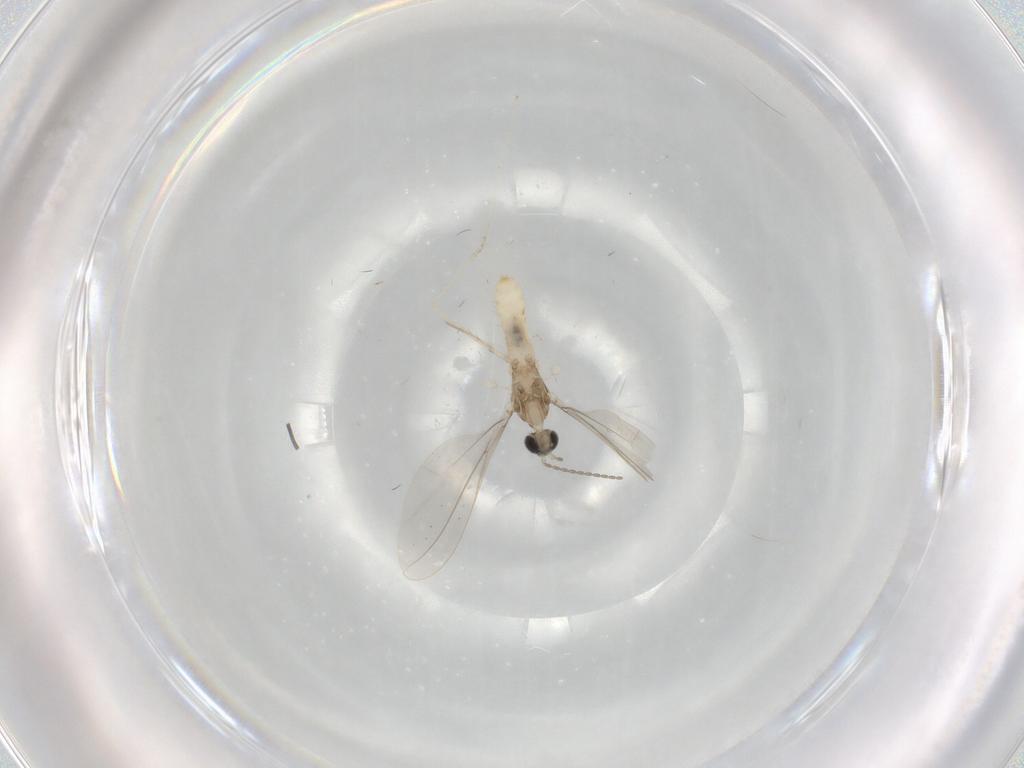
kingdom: Animalia
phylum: Arthropoda
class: Insecta
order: Diptera
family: Cecidomyiidae
